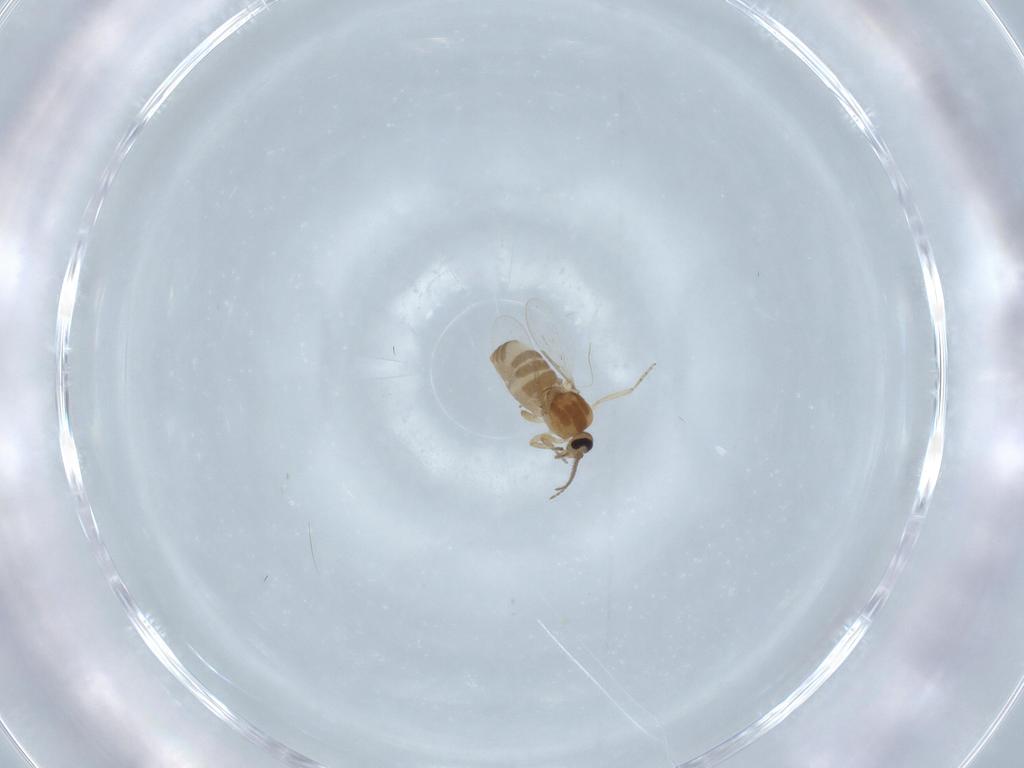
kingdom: Animalia
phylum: Arthropoda
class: Insecta
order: Diptera
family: Ceratopogonidae
